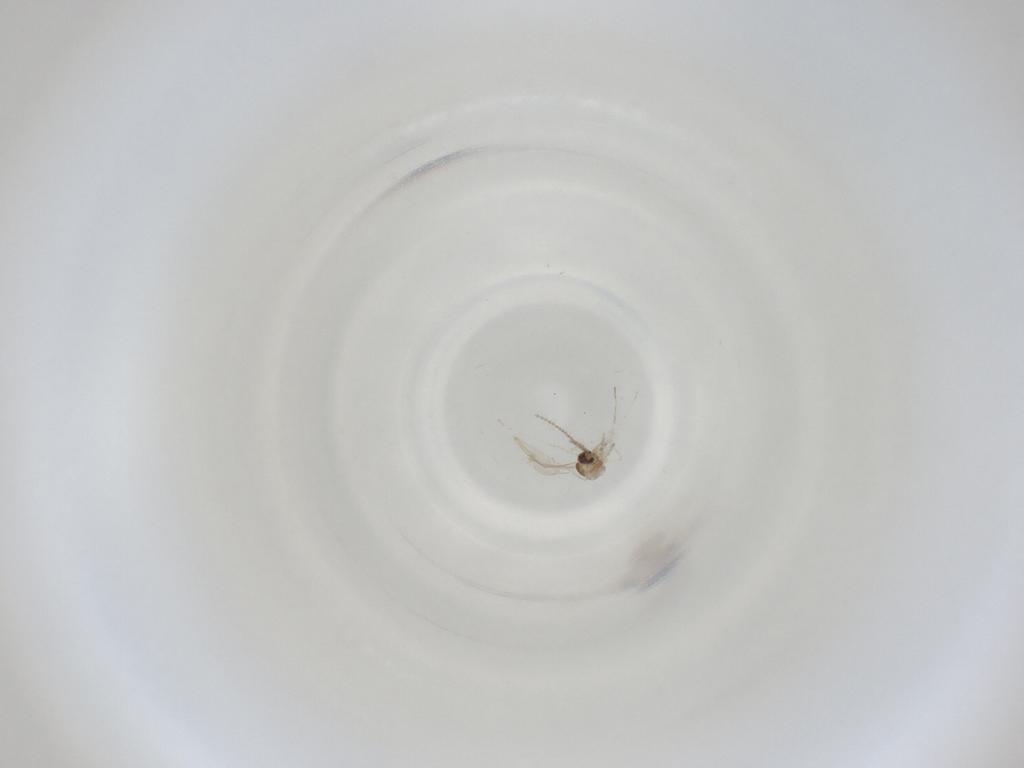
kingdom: Animalia
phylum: Arthropoda
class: Insecta
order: Diptera
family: Cecidomyiidae
